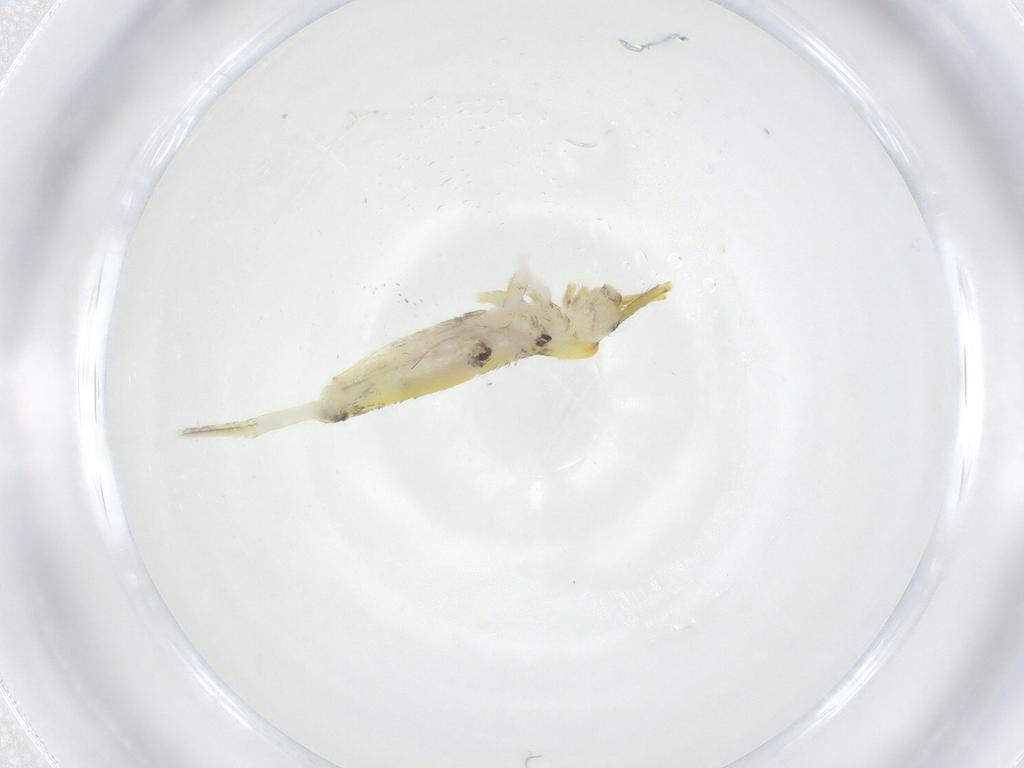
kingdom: Animalia
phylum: Arthropoda
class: Collembola
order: Entomobryomorpha
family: Entomobryidae
